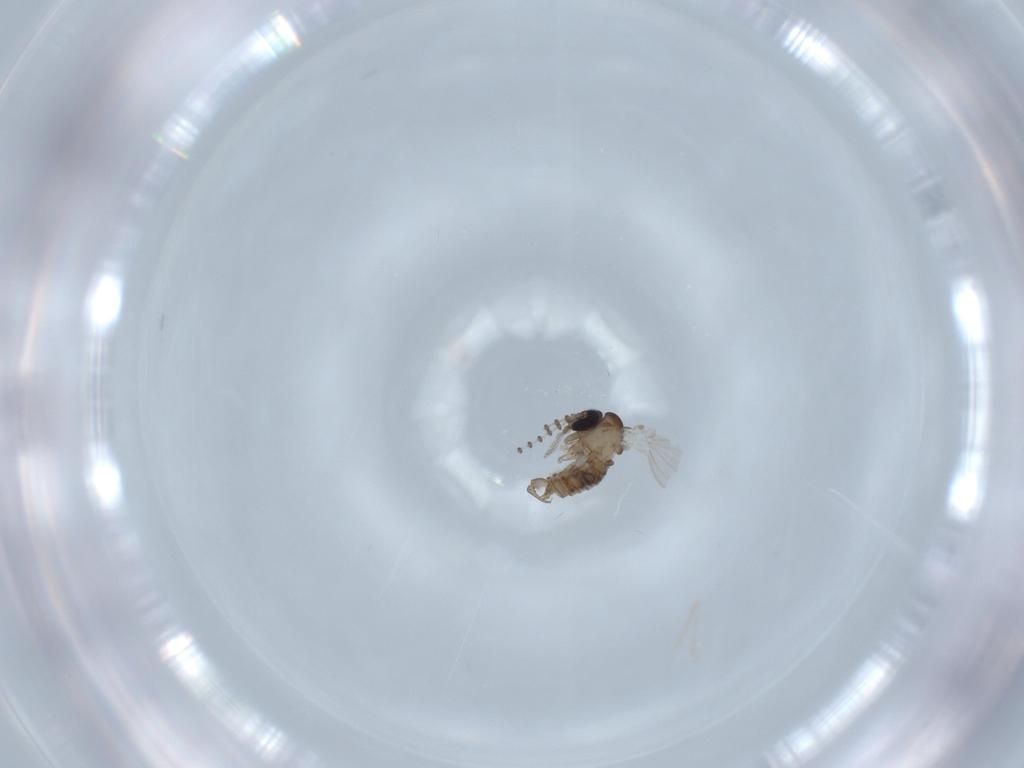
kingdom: Animalia
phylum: Arthropoda
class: Insecta
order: Diptera
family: Psychodidae
